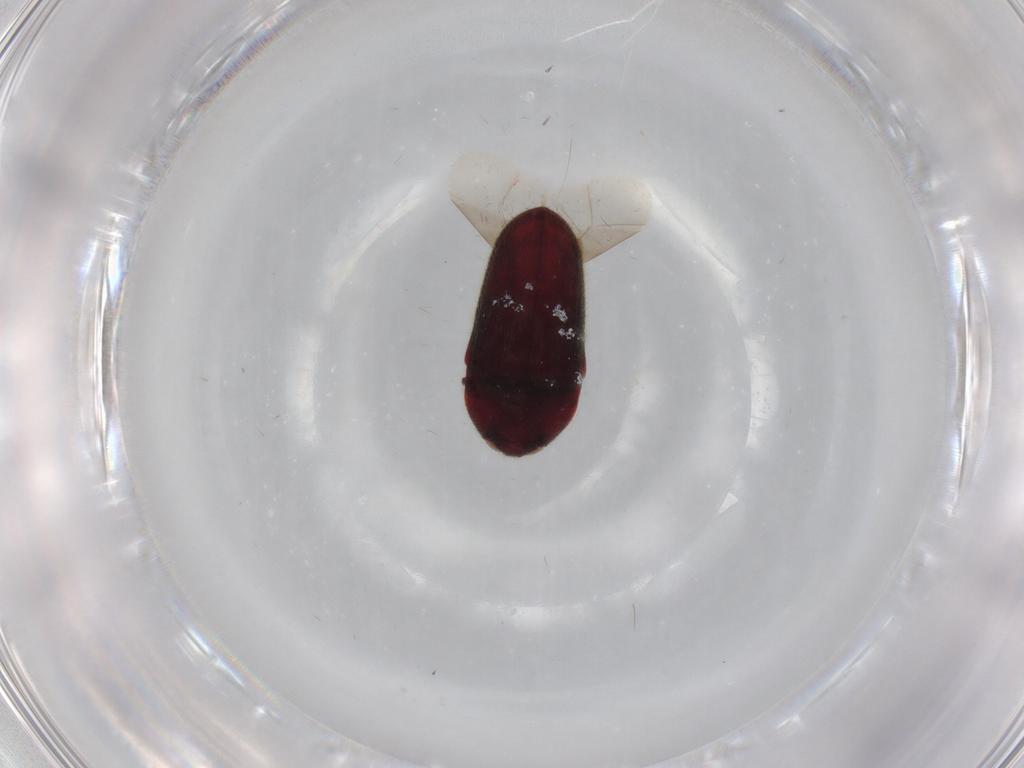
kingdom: Animalia
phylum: Arthropoda
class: Insecta
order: Coleoptera
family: Throscidae
